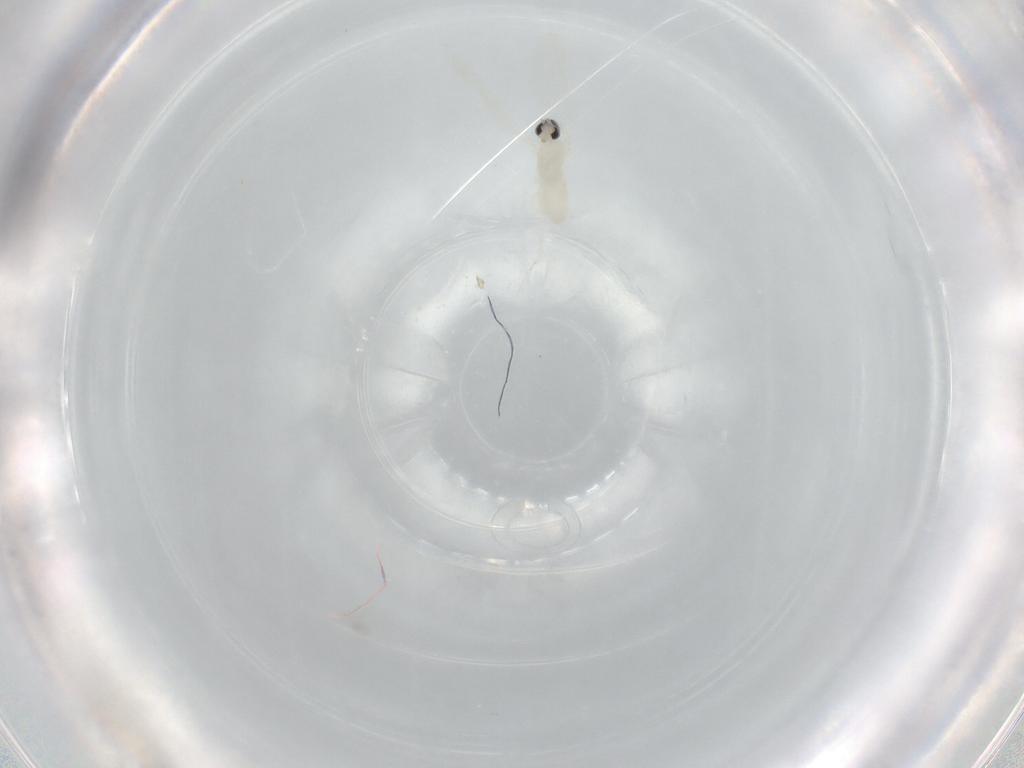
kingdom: Animalia
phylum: Arthropoda
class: Insecta
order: Diptera
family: Cecidomyiidae
